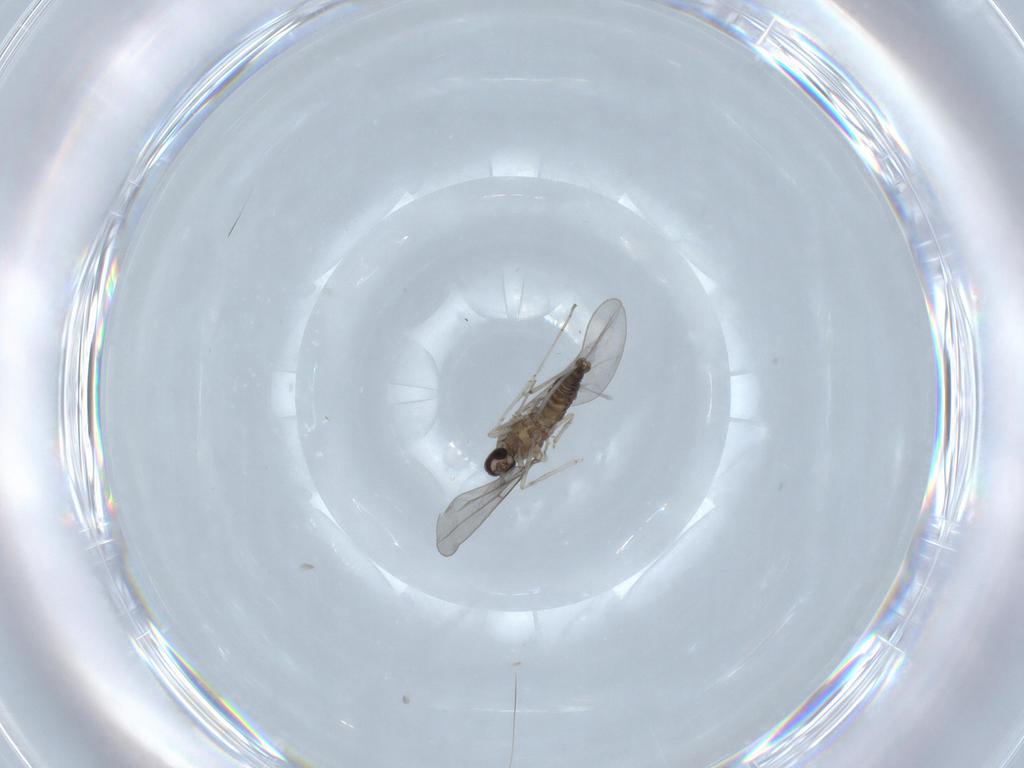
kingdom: Animalia
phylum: Arthropoda
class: Insecta
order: Diptera
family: Cecidomyiidae
